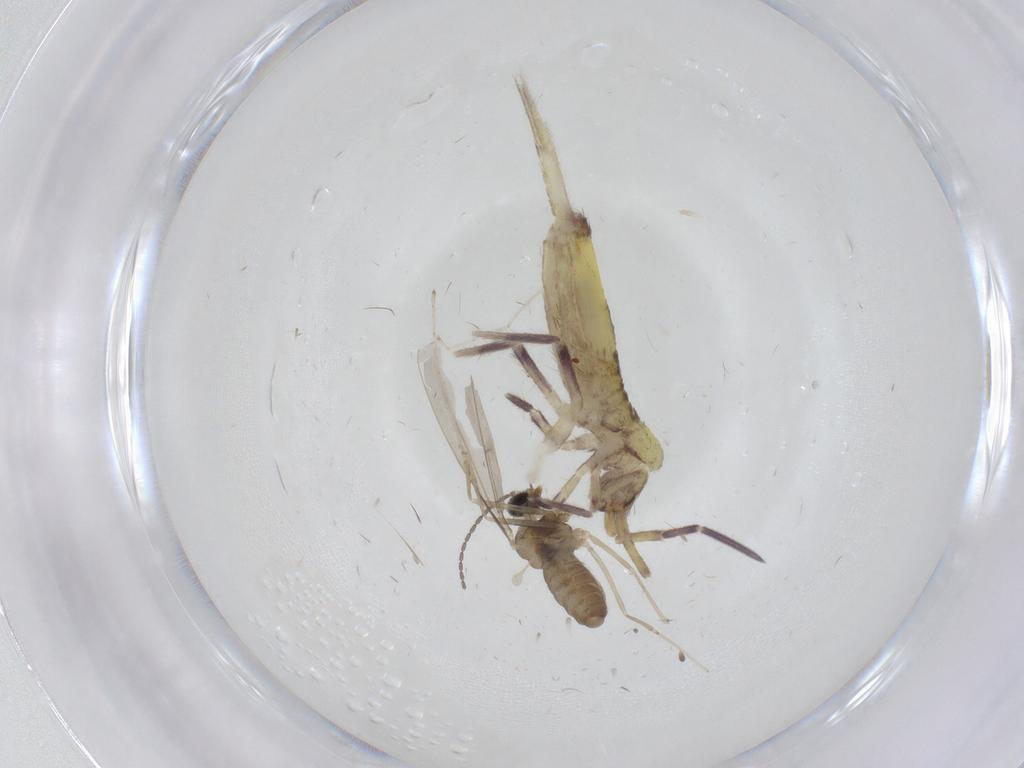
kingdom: Animalia
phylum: Arthropoda
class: Collembola
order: Entomobryomorpha
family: Entomobryidae
